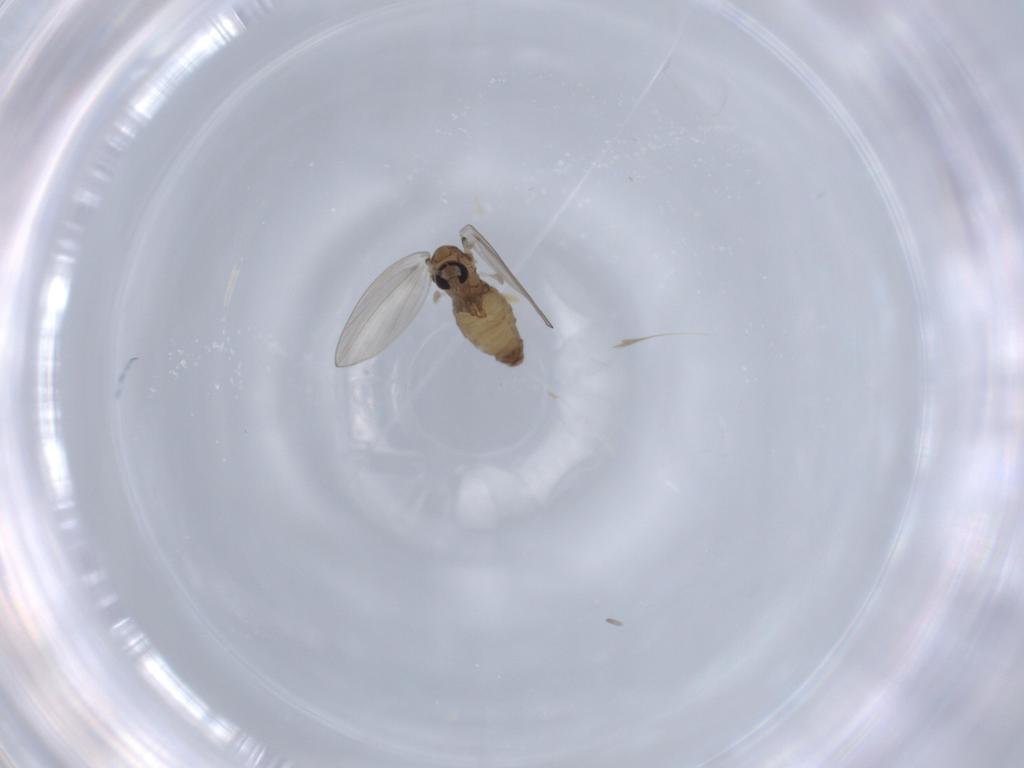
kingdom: Animalia
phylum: Arthropoda
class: Insecta
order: Diptera
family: Psychodidae
